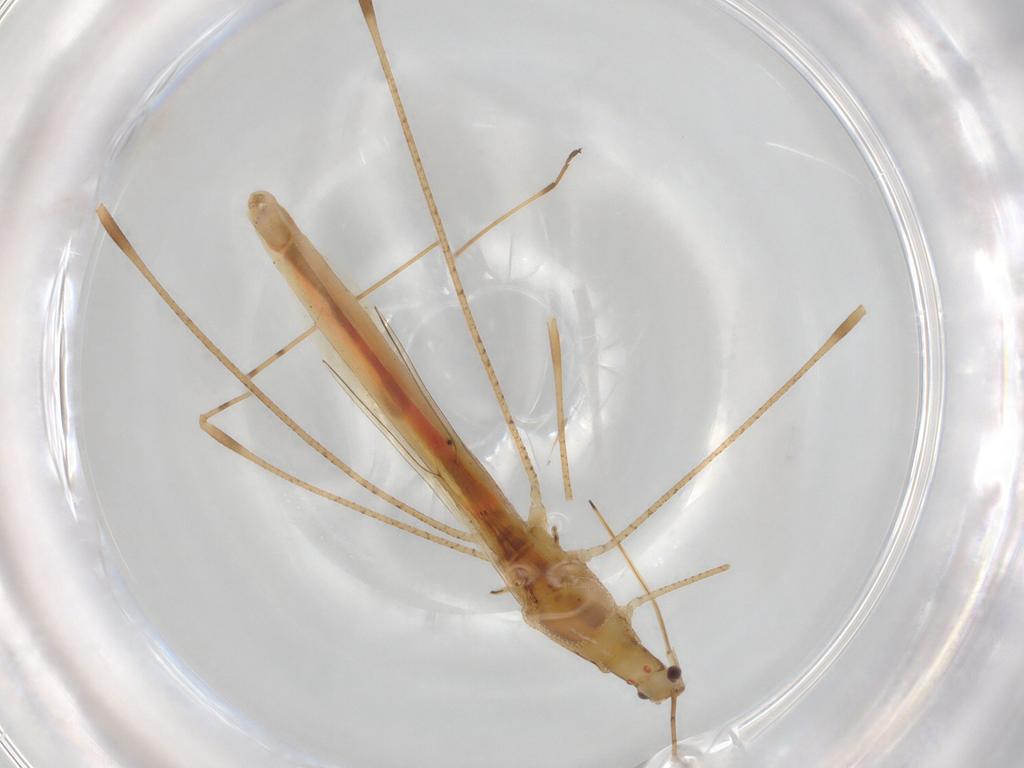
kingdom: Animalia
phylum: Arthropoda
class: Insecta
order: Hemiptera
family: Berytidae
